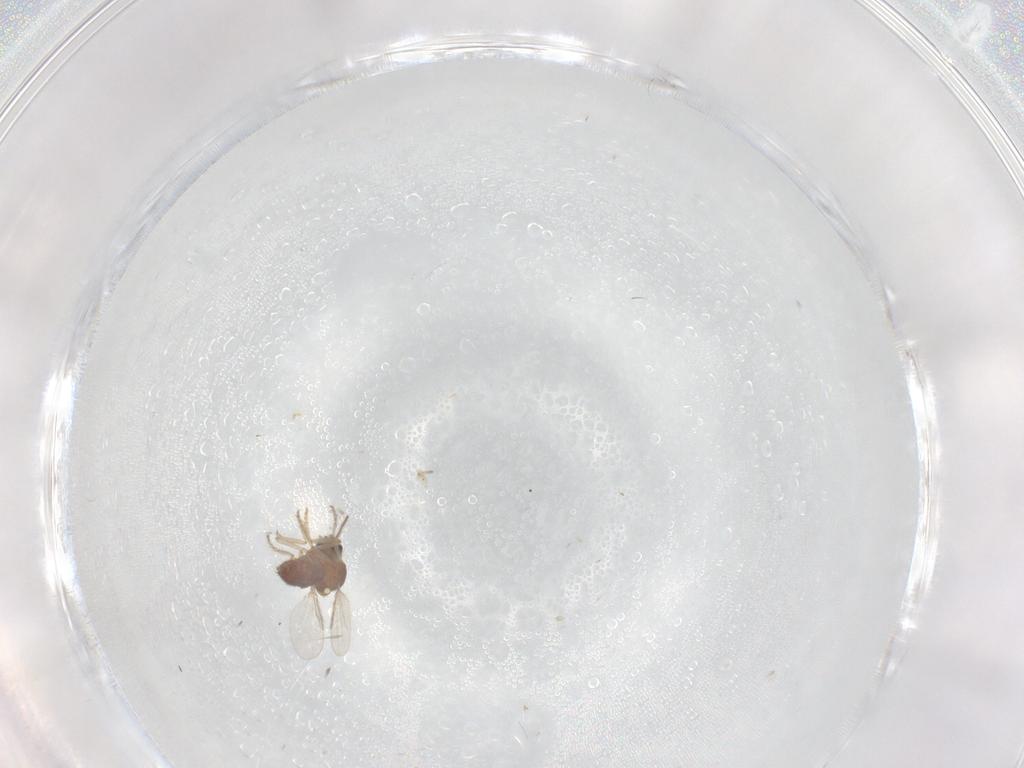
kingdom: Animalia
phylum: Arthropoda
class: Insecta
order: Diptera
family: Ceratopogonidae
